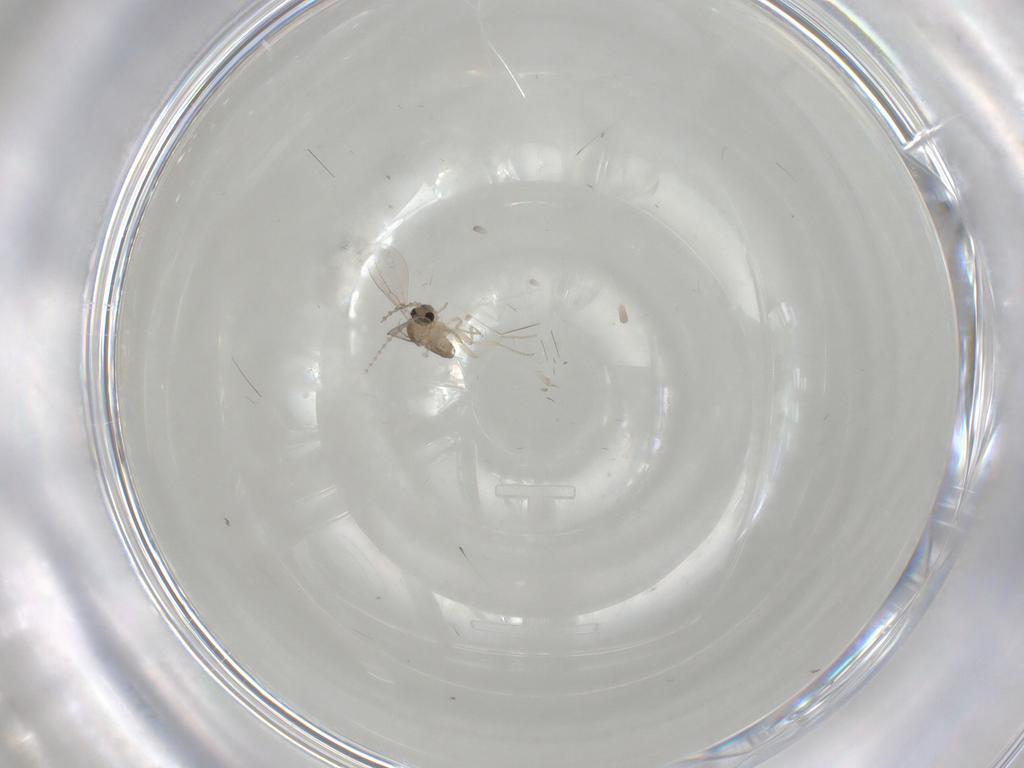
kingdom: Animalia
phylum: Arthropoda
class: Insecta
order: Diptera
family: Cecidomyiidae
